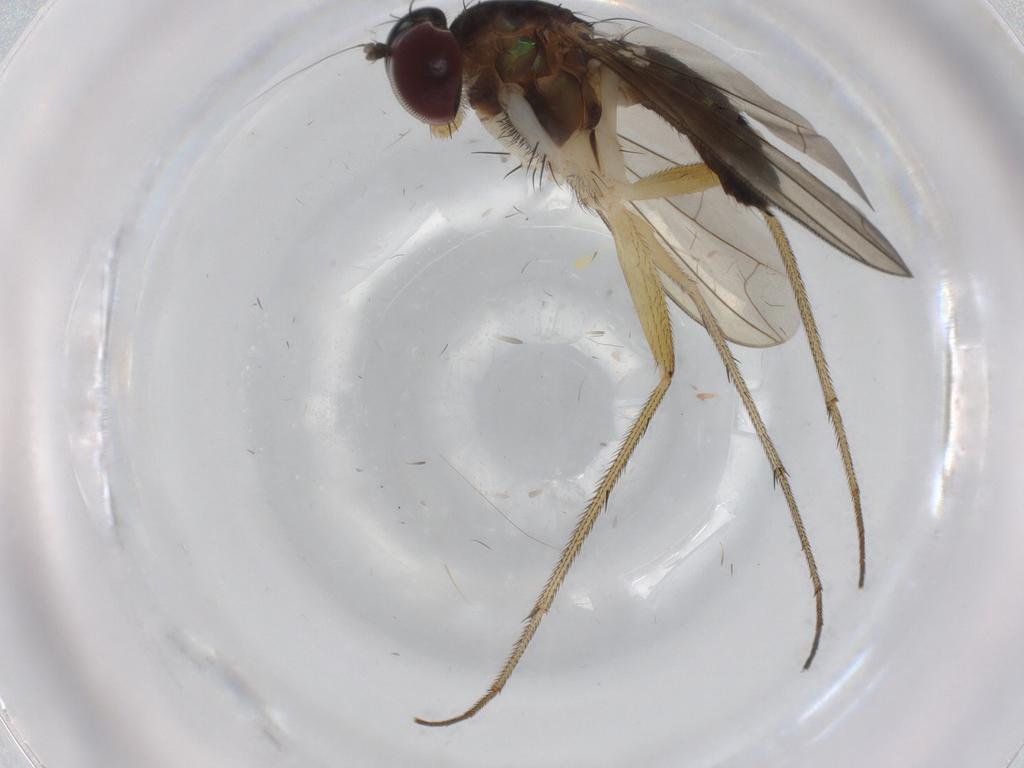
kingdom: Animalia
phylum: Arthropoda
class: Insecta
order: Diptera
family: Dolichopodidae
